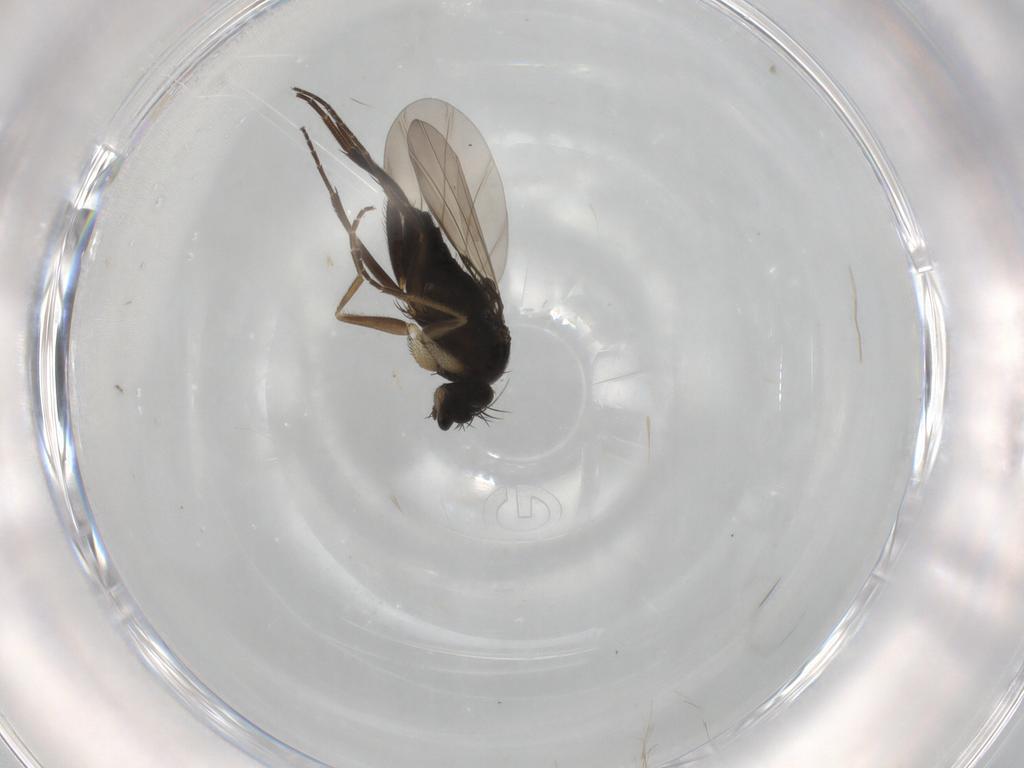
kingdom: Animalia
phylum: Arthropoda
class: Insecta
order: Diptera
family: Phoridae
